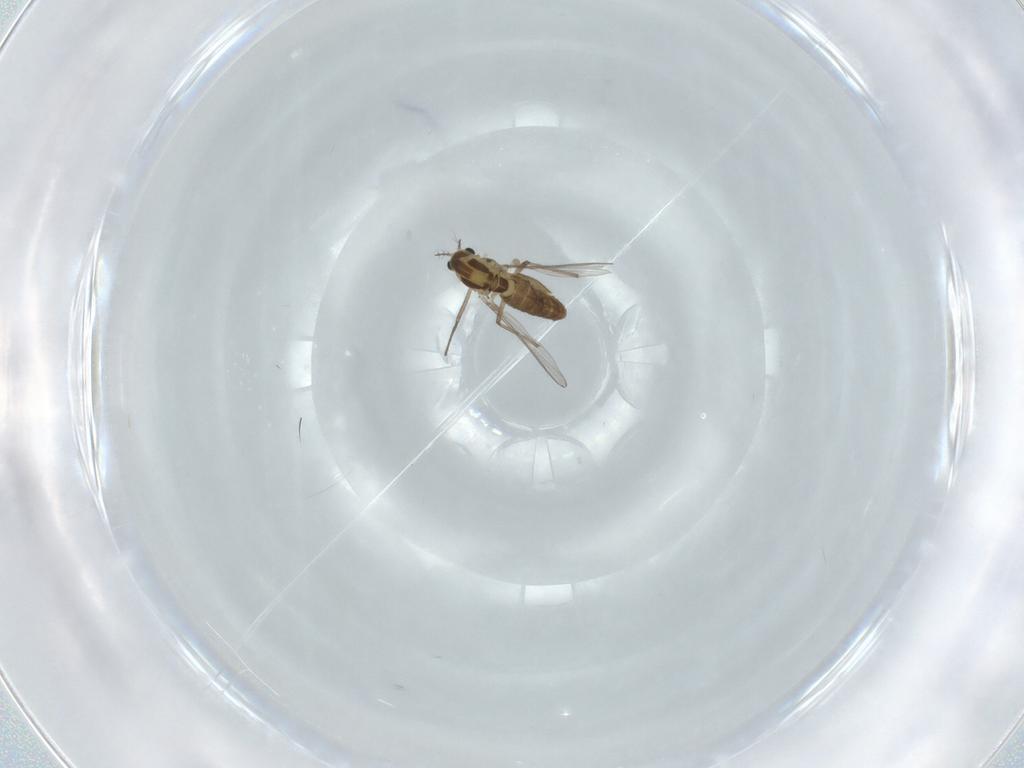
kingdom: Animalia
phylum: Arthropoda
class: Insecta
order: Diptera
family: Chironomidae
